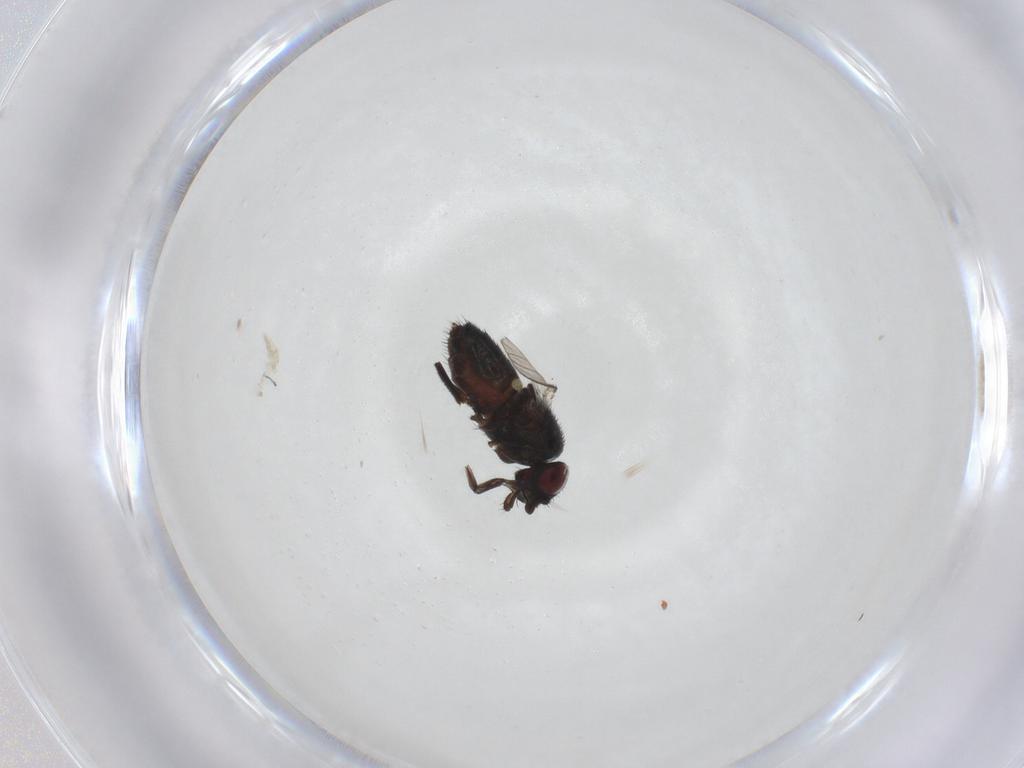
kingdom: Animalia
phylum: Arthropoda
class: Insecta
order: Diptera
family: Milichiidae
